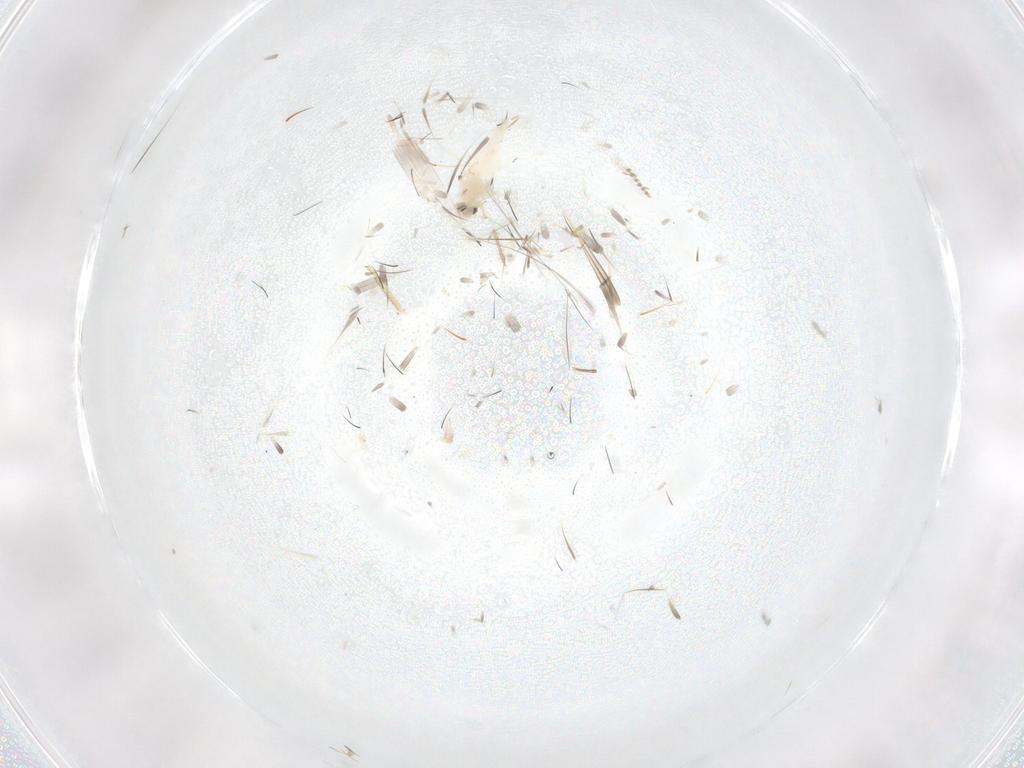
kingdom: Animalia
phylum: Arthropoda
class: Insecta
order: Hemiptera
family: Aleyrodidae
